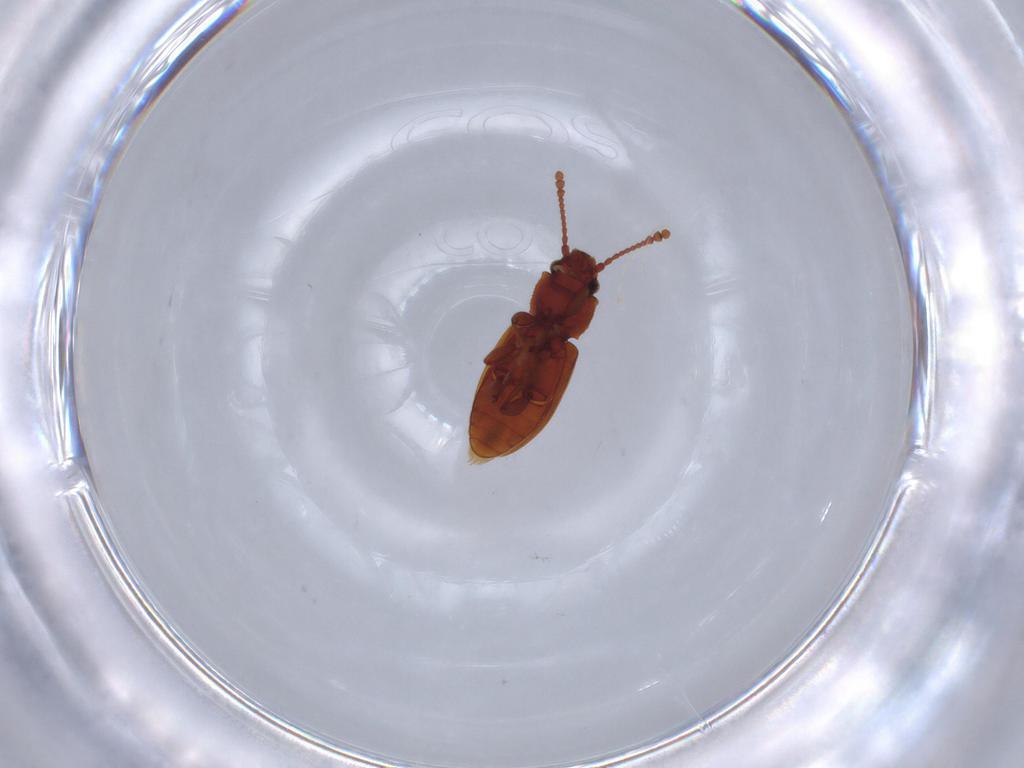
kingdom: Animalia
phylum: Arthropoda
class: Insecta
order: Coleoptera
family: Silvanidae
